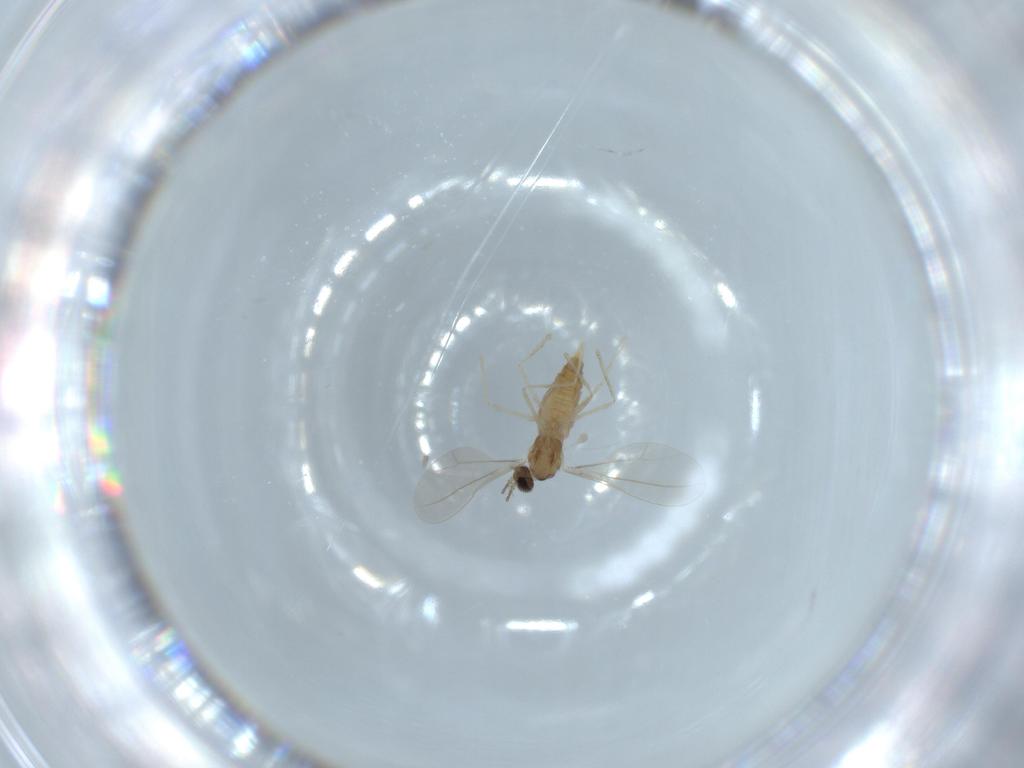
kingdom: Animalia
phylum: Arthropoda
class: Insecta
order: Diptera
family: Cecidomyiidae
